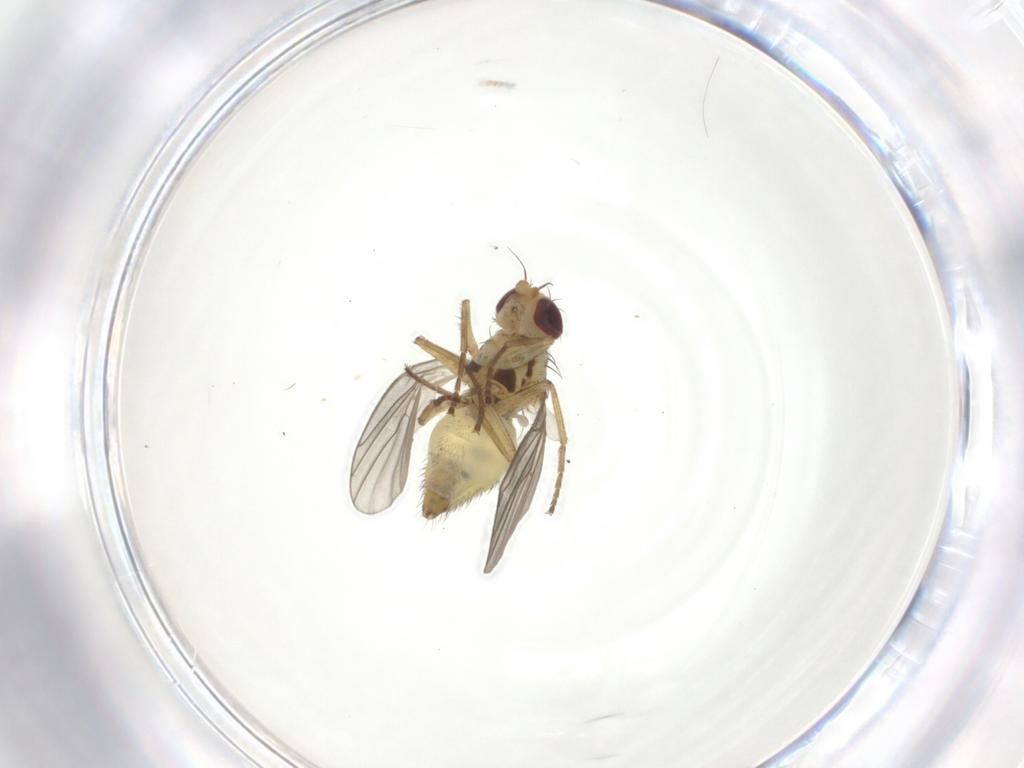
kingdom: Animalia
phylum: Arthropoda
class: Insecta
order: Diptera
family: Agromyzidae
